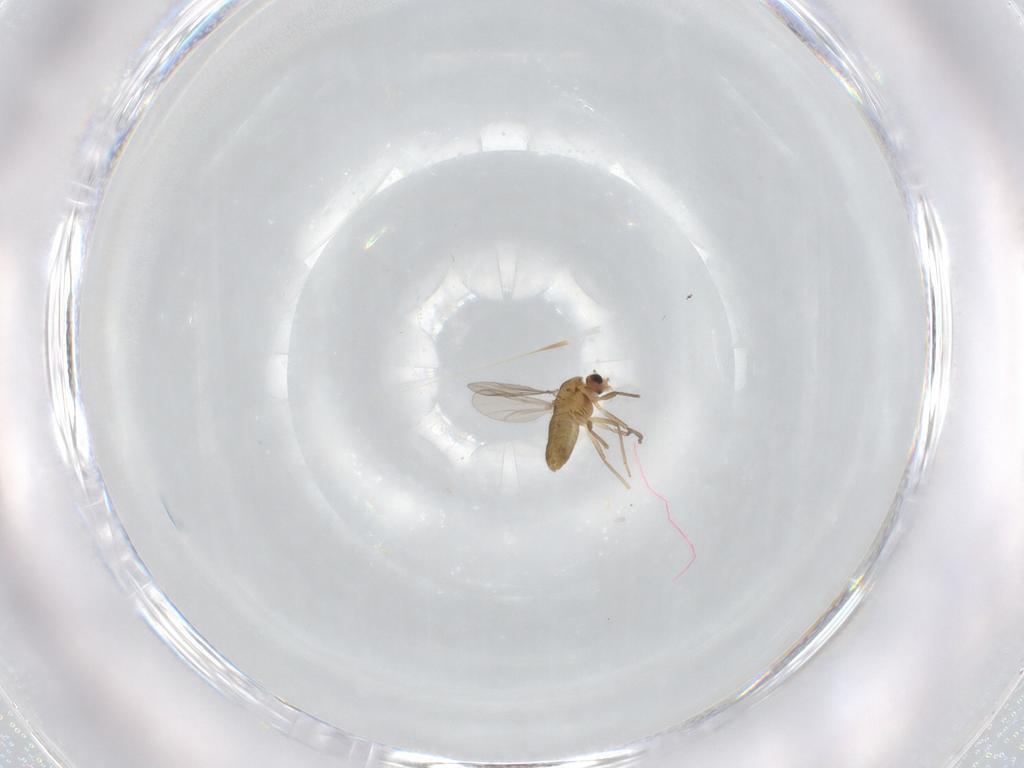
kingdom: Animalia
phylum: Arthropoda
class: Insecta
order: Diptera
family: Chironomidae
